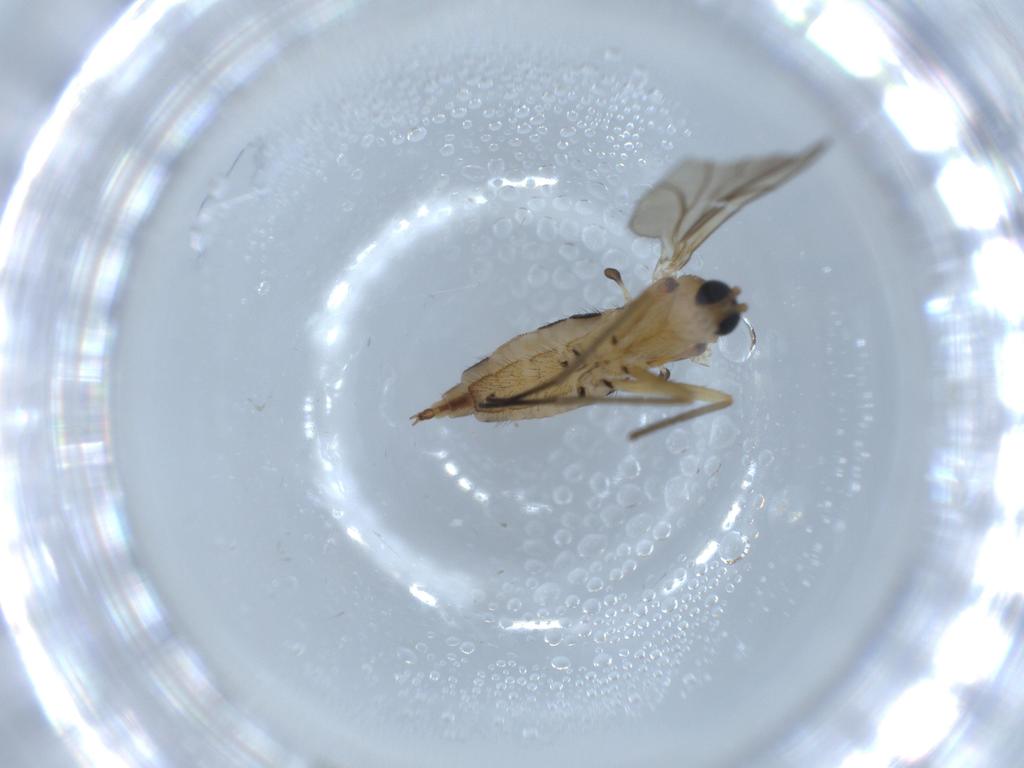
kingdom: Animalia
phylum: Arthropoda
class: Insecta
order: Diptera
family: Sciaridae
